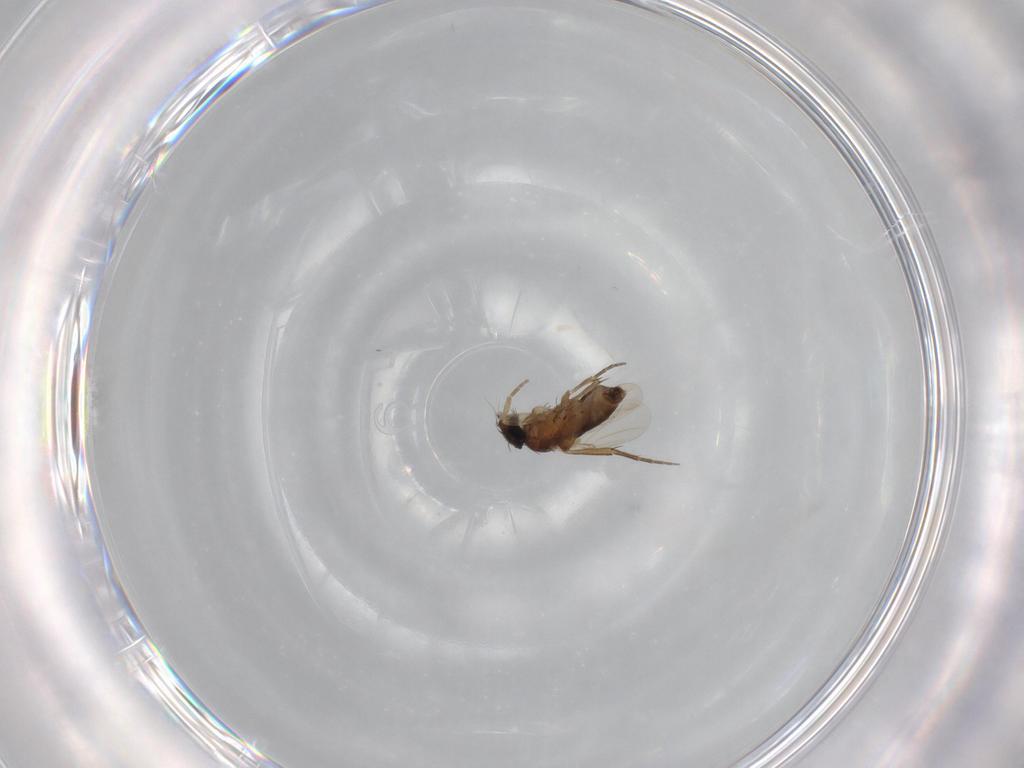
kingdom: Animalia
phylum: Arthropoda
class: Insecta
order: Diptera
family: Phoridae
